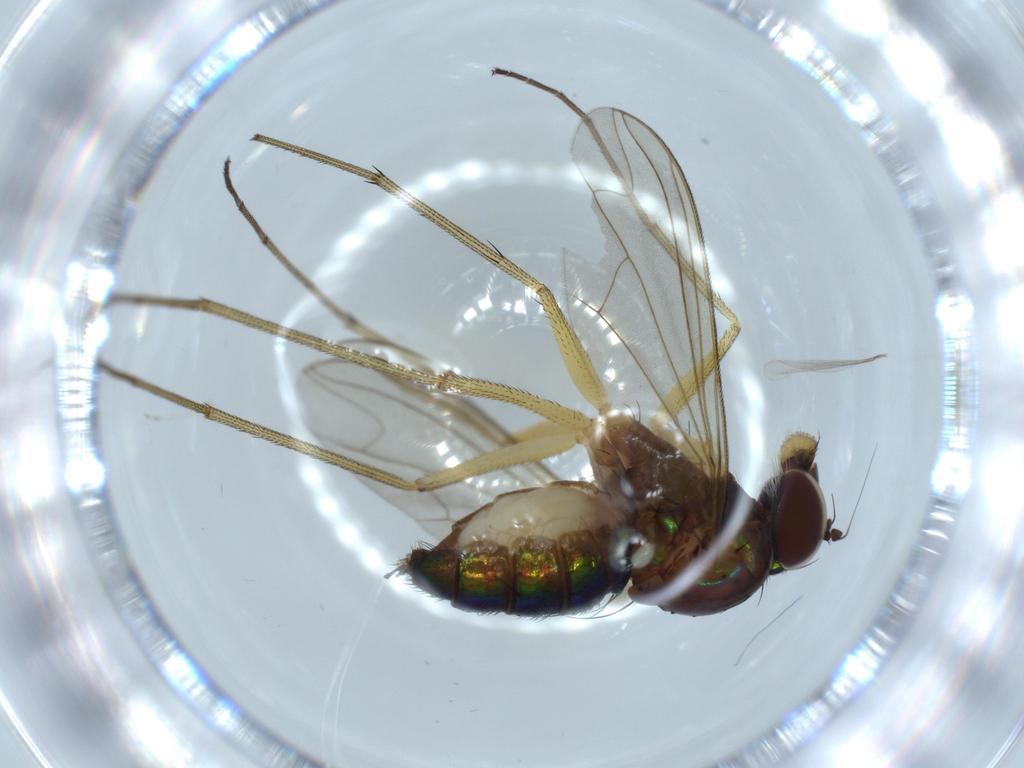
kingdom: Animalia
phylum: Arthropoda
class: Insecta
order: Diptera
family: Dolichopodidae
